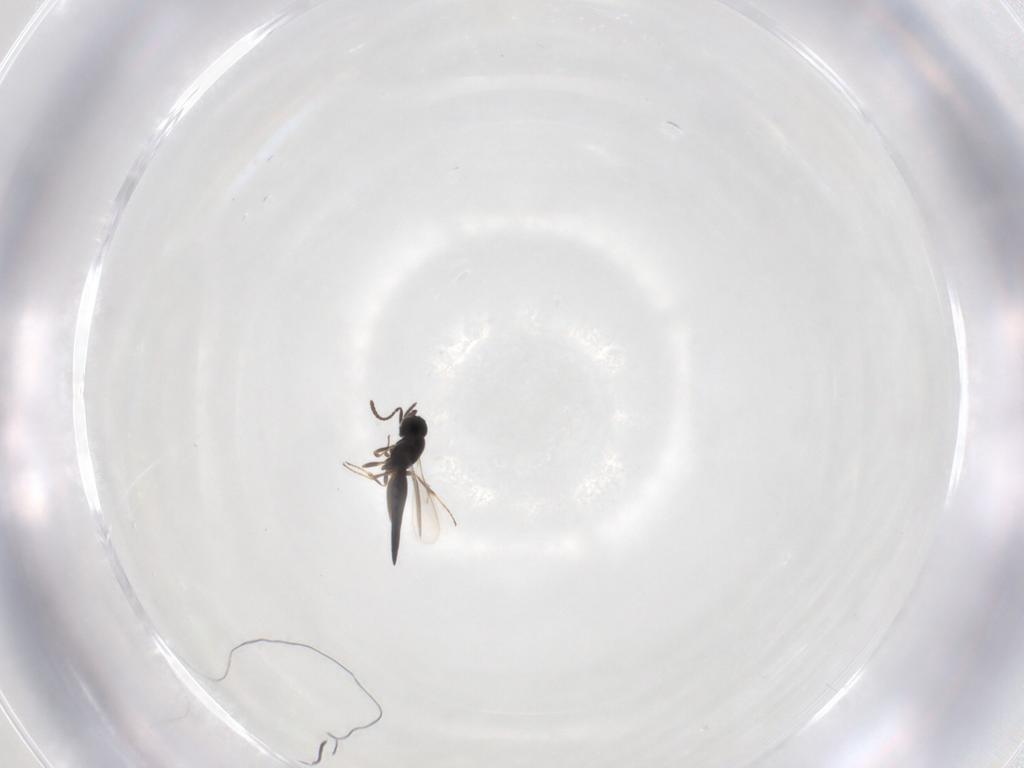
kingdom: Animalia
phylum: Arthropoda
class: Insecta
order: Hymenoptera
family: Scelionidae
